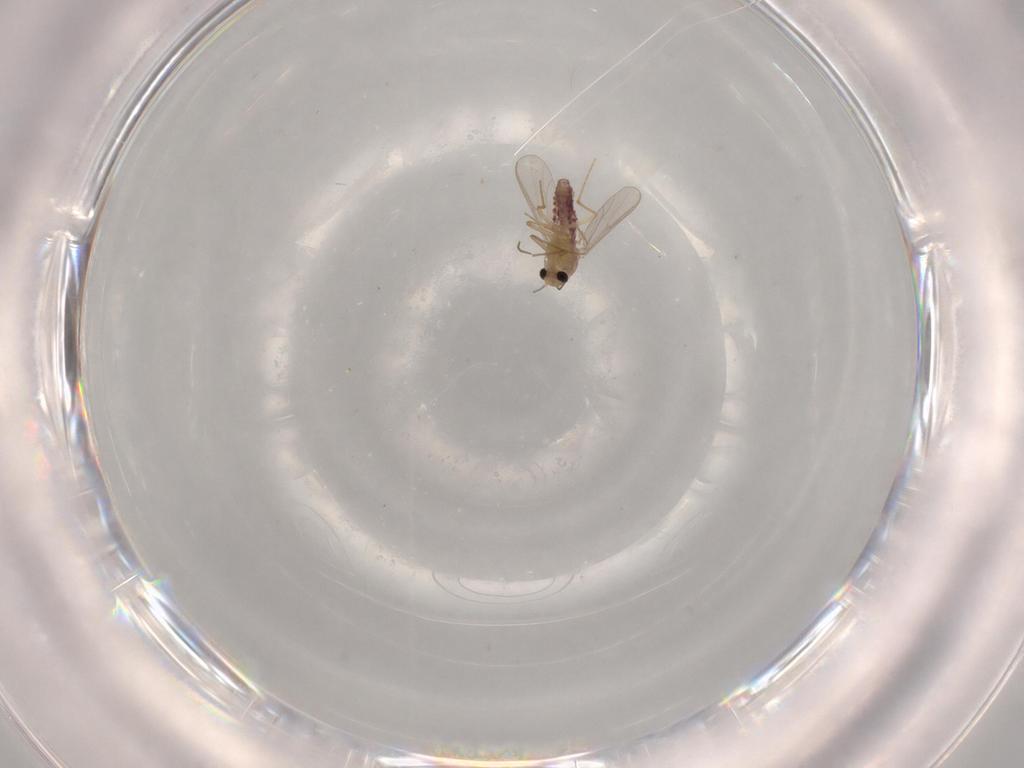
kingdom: Animalia
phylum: Arthropoda
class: Insecta
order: Diptera
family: Chironomidae
